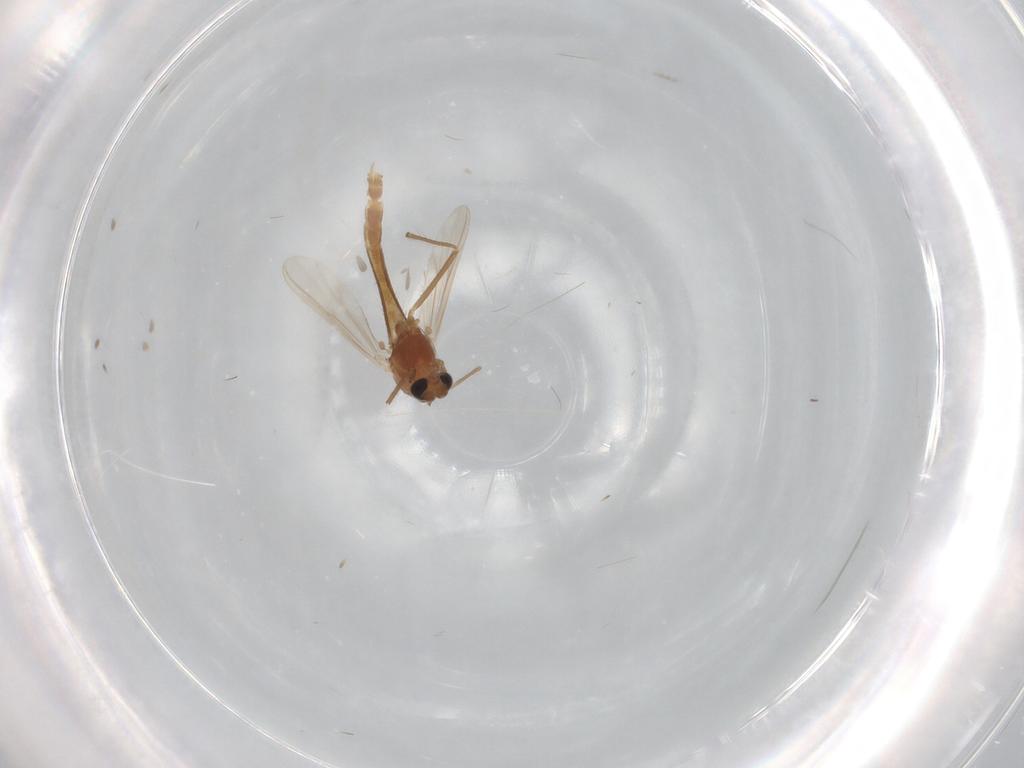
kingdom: Animalia
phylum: Arthropoda
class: Insecta
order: Diptera
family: Chironomidae
